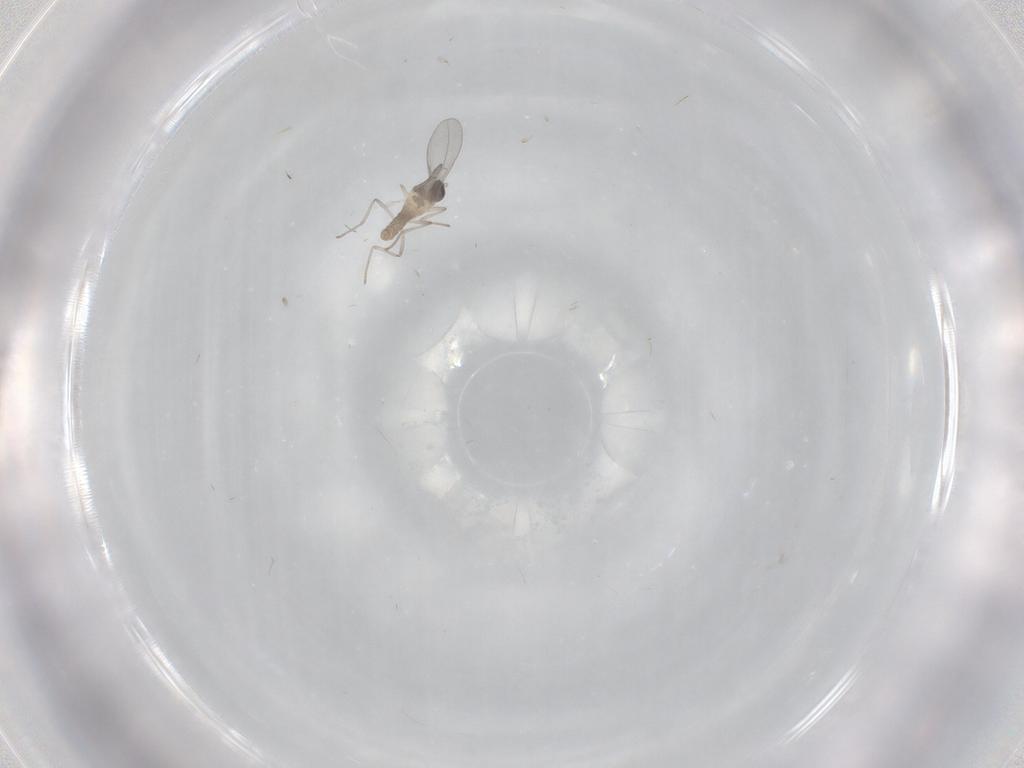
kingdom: Animalia
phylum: Arthropoda
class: Insecta
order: Diptera
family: Cecidomyiidae
